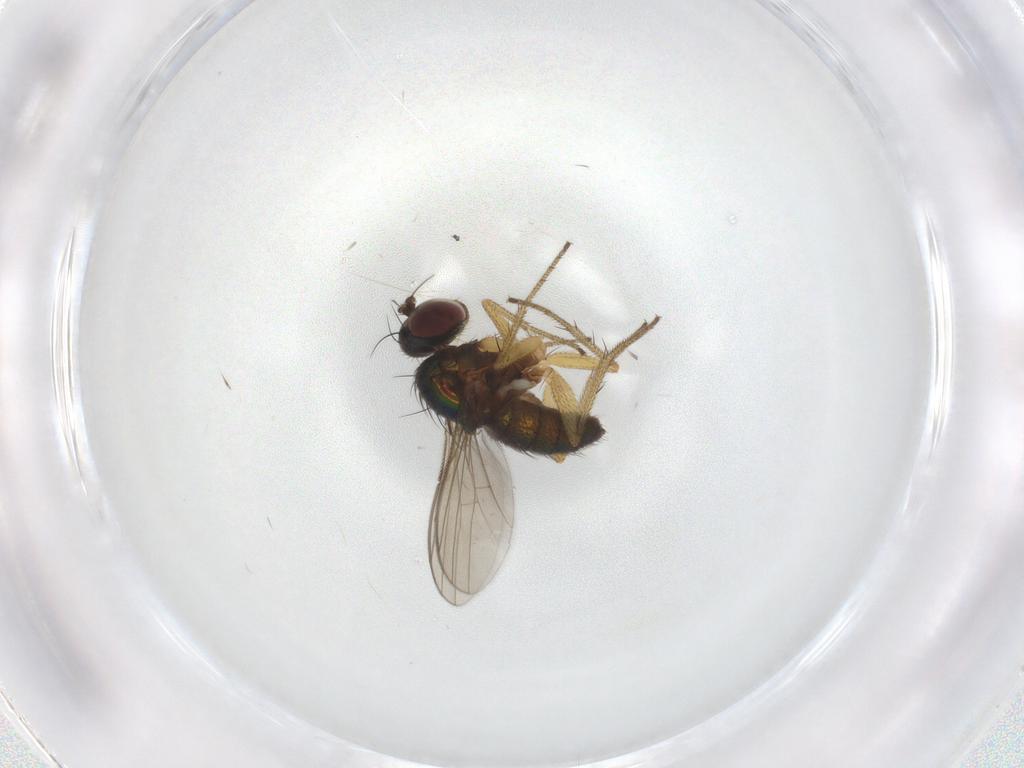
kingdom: Animalia
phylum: Arthropoda
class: Insecta
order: Diptera
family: Dolichopodidae
